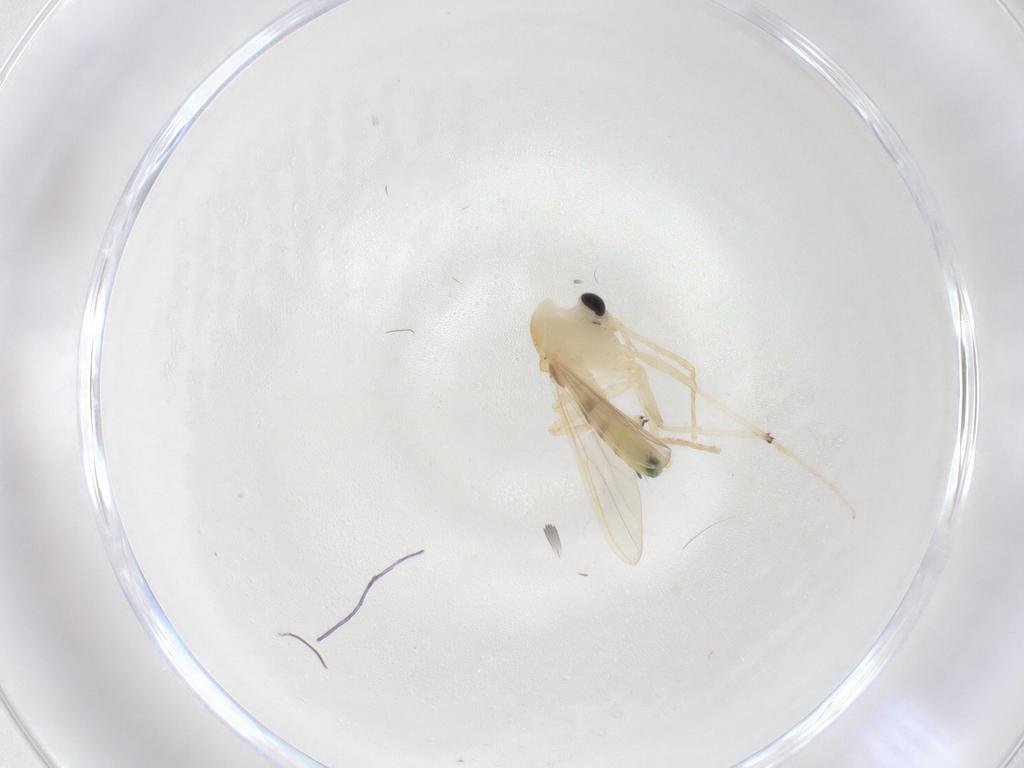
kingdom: Animalia
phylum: Arthropoda
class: Insecta
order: Diptera
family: Chironomidae
